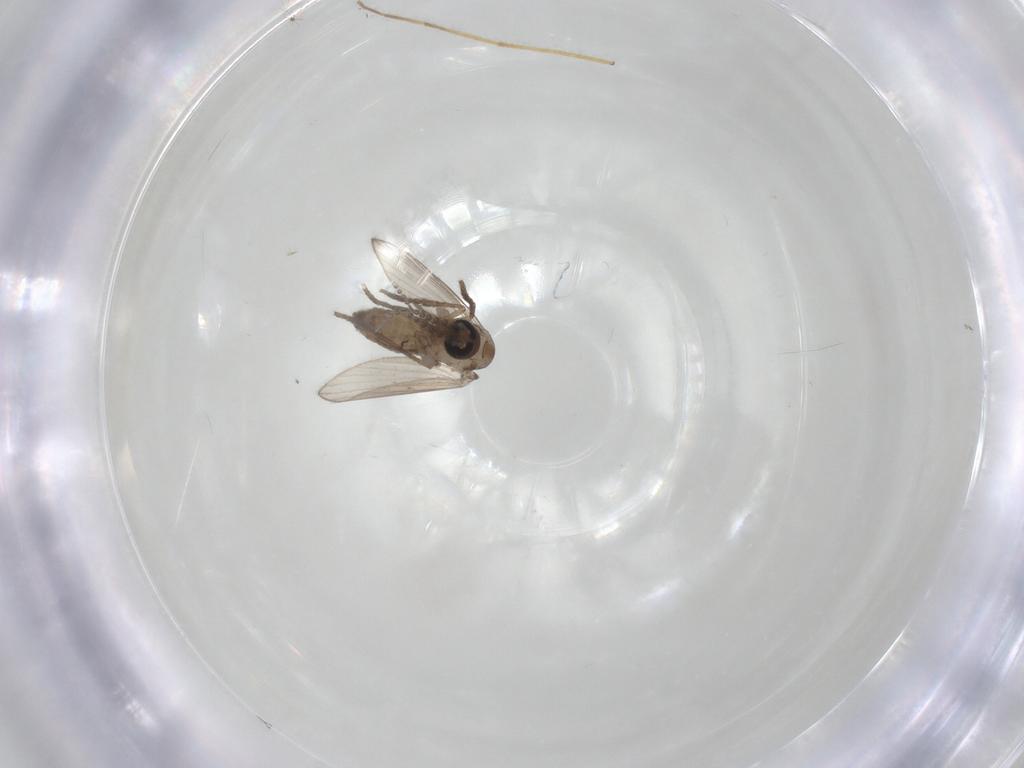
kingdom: Animalia
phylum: Arthropoda
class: Insecta
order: Diptera
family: Psychodidae
